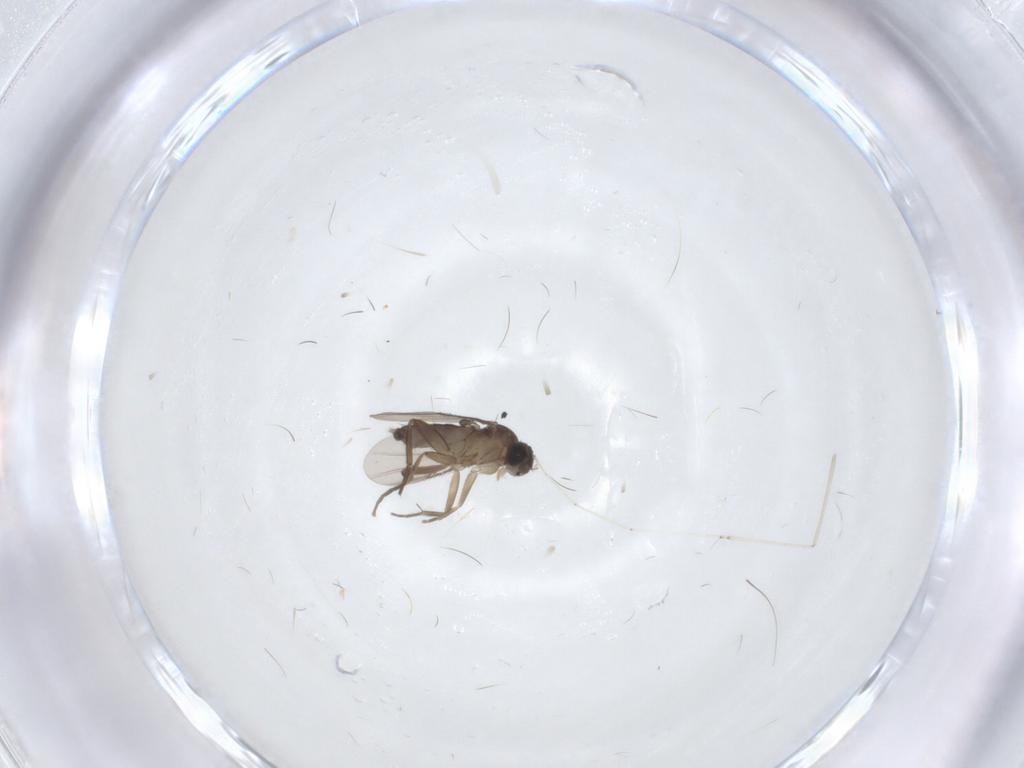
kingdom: Animalia
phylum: Arthropoda
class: Insecta
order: Diptera
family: Phoridae
